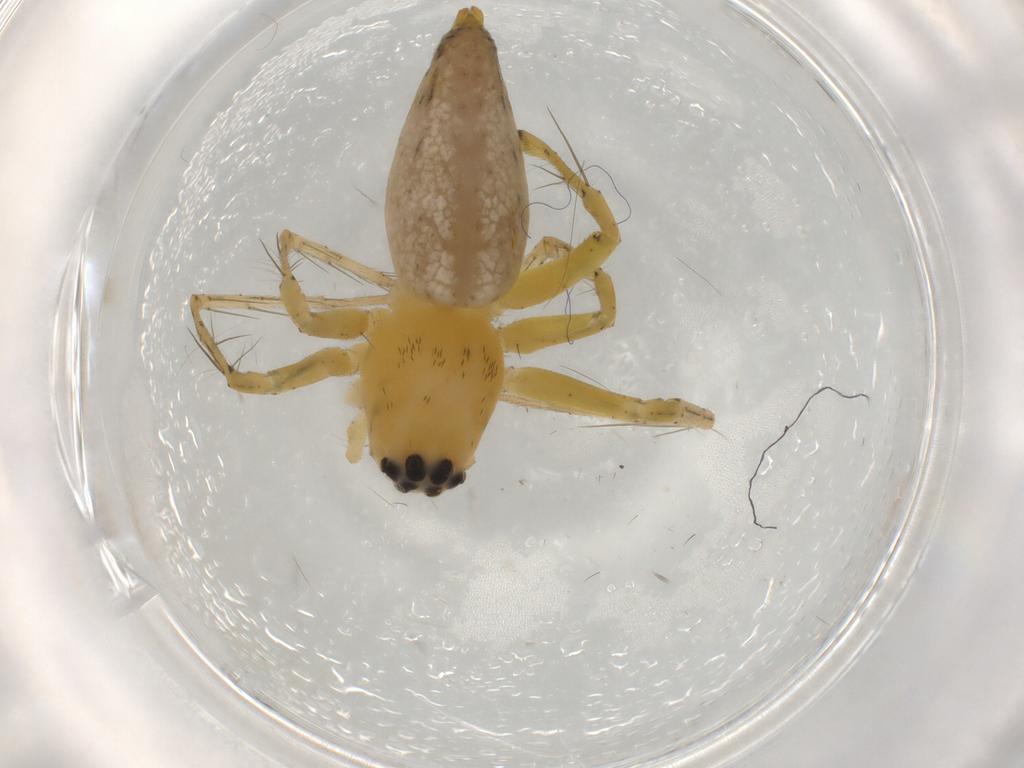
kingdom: Animalia
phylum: Arthropoda
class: Arachnida
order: Araneae
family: Oxyopidae
